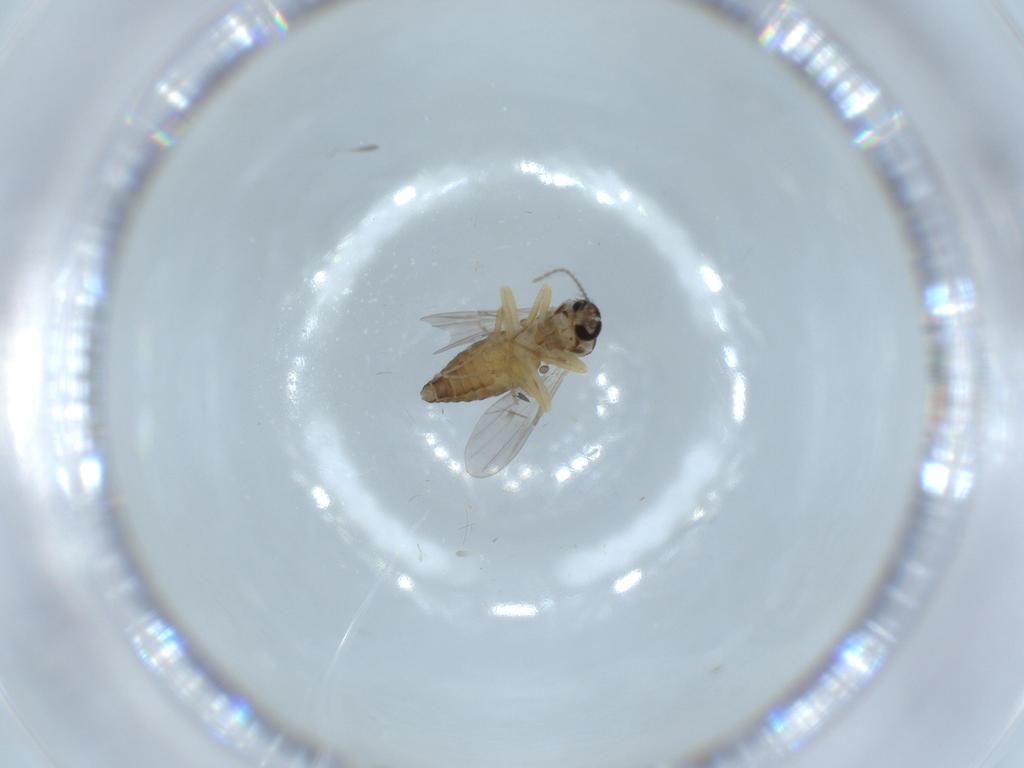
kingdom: Animalia
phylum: Arthropoda
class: Insecta
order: Diptera
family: Ceratopogonidae
